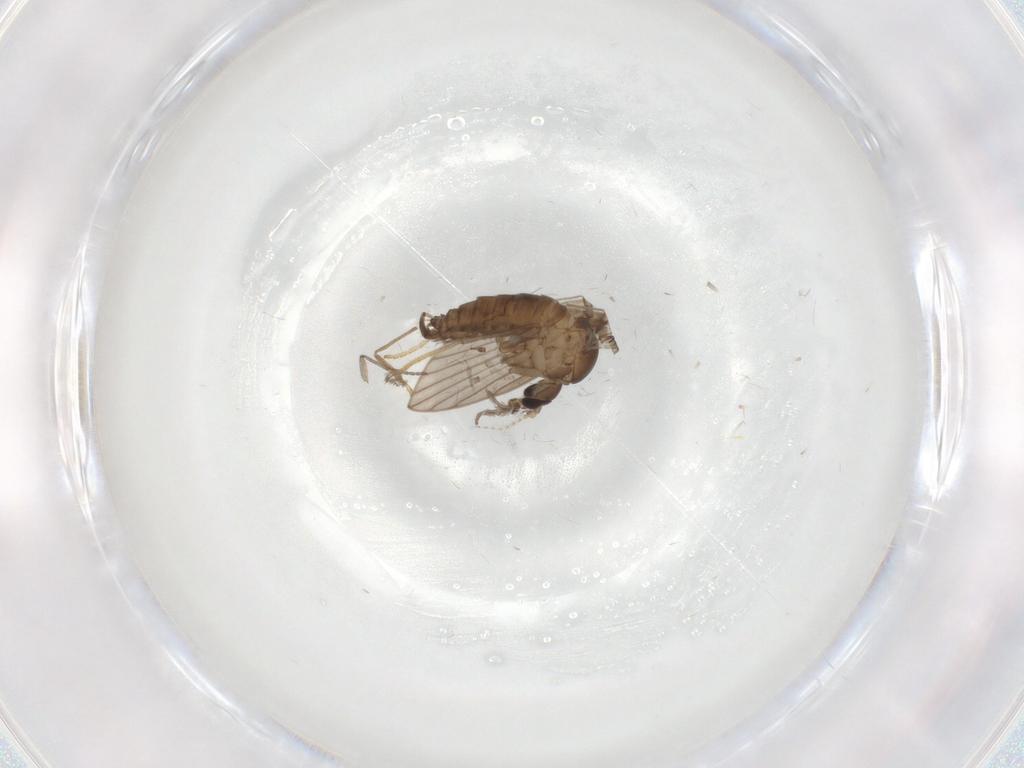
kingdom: Animalia
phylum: Arthropoda
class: Insecta
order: Diptera
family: Psychodidae
